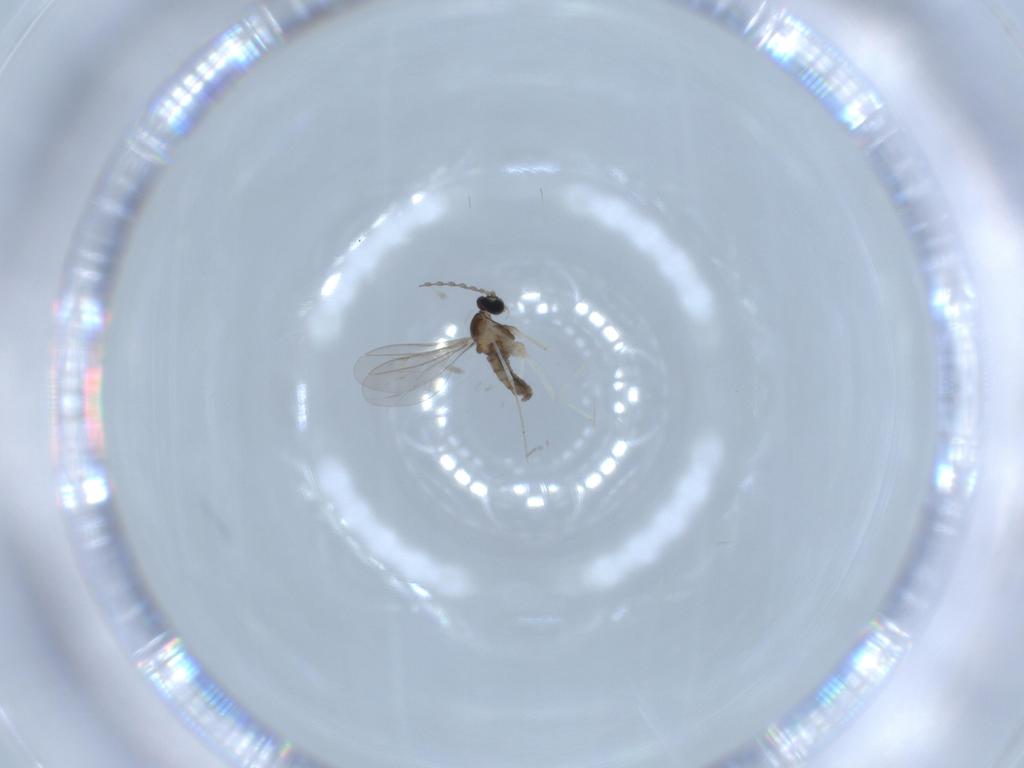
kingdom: Animalia
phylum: Arthropoda
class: Insecta
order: Diptera
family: Cecidomyiidae
